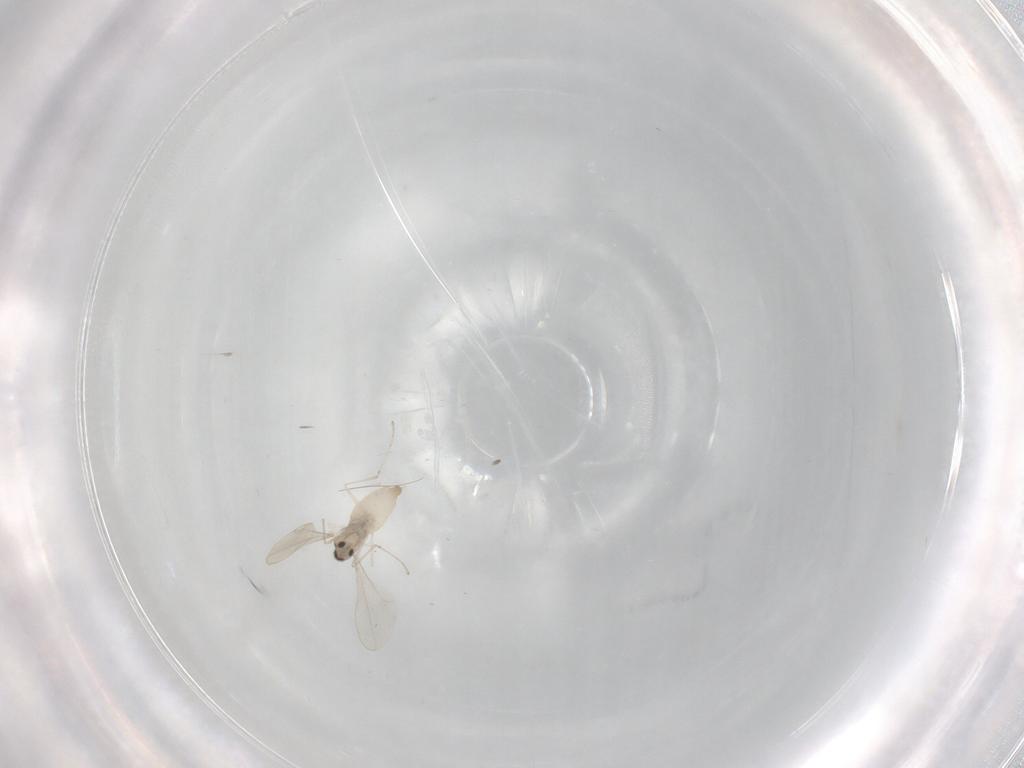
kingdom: Animalia
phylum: Arthropoda
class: Insecta
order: Diptera
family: Cecidomyiidae
